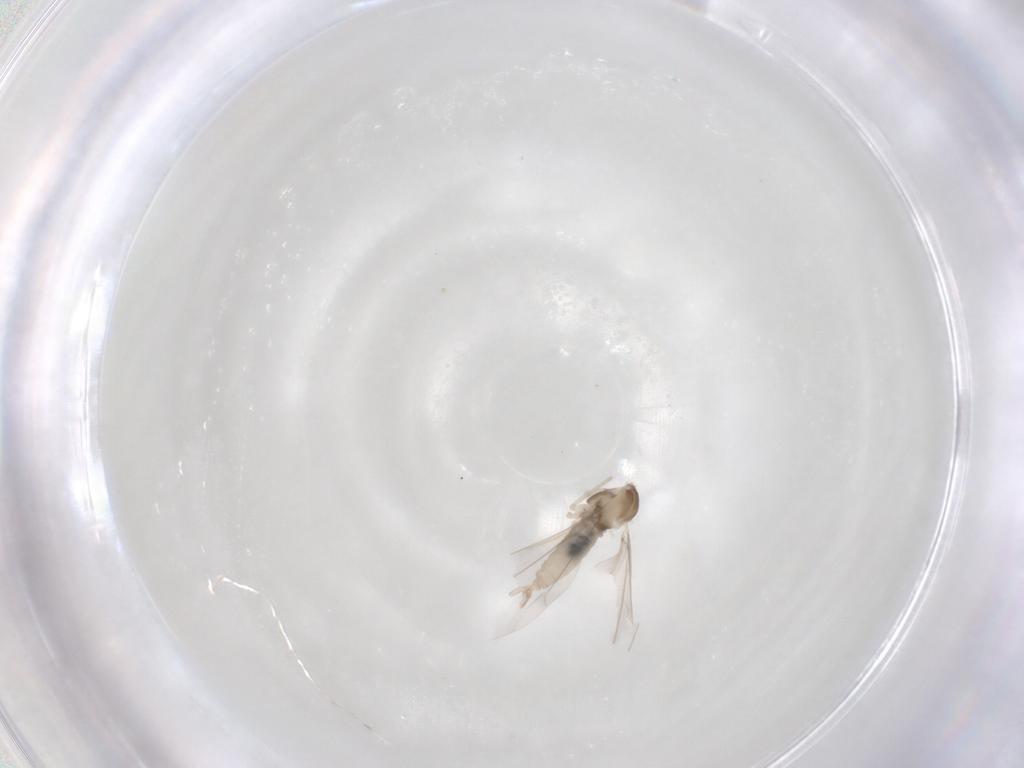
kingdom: Animalia
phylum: Arthropoda
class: Insecta
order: Diptera
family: Cecidomyiidae
